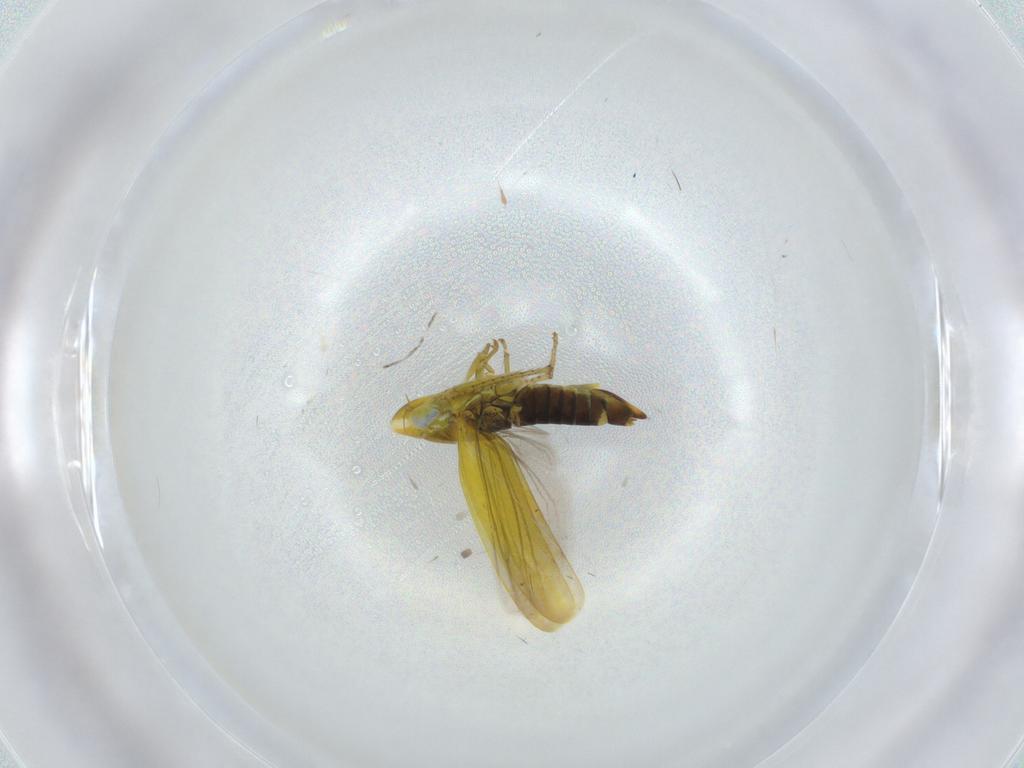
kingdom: Animalia
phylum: Arthropoda
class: Insecta
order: Hemiptera
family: Cicadellidae
